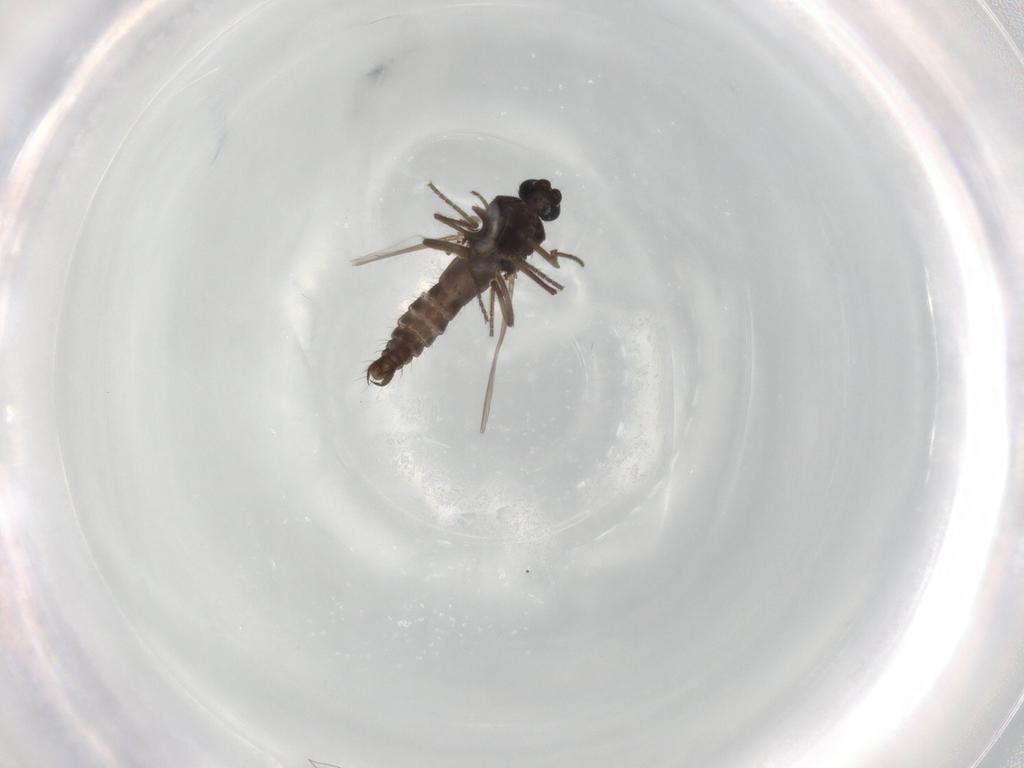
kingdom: Animalia
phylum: Arthropoda
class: Insecta
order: Diptera
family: Ceratopogonidae
